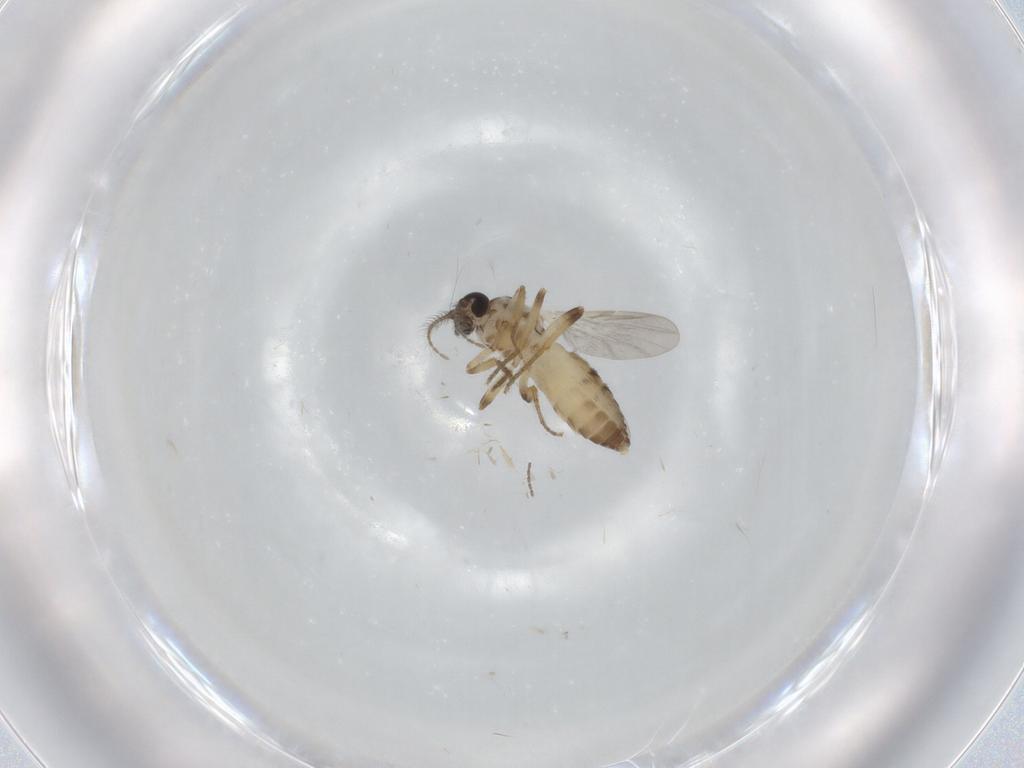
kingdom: Animalia
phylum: Arthropoda
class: Insecta
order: Diptera
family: Ceratopogonidae
